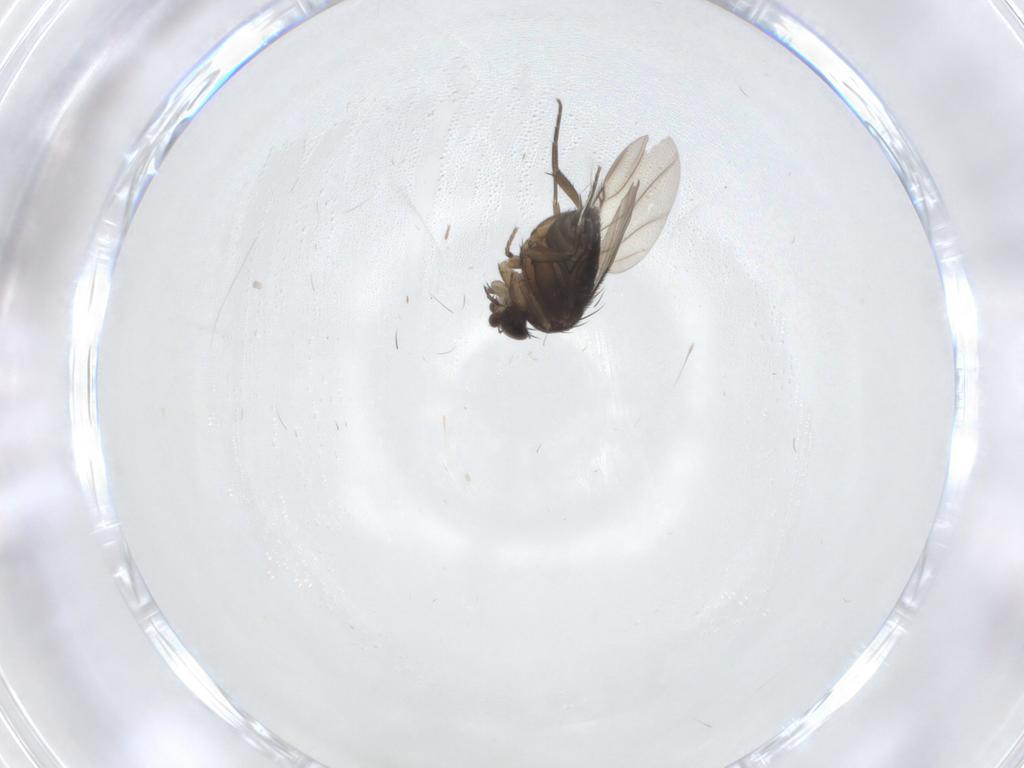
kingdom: Animalia
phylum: Arthropoda
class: Insecta
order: Diptera
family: Phoridae
